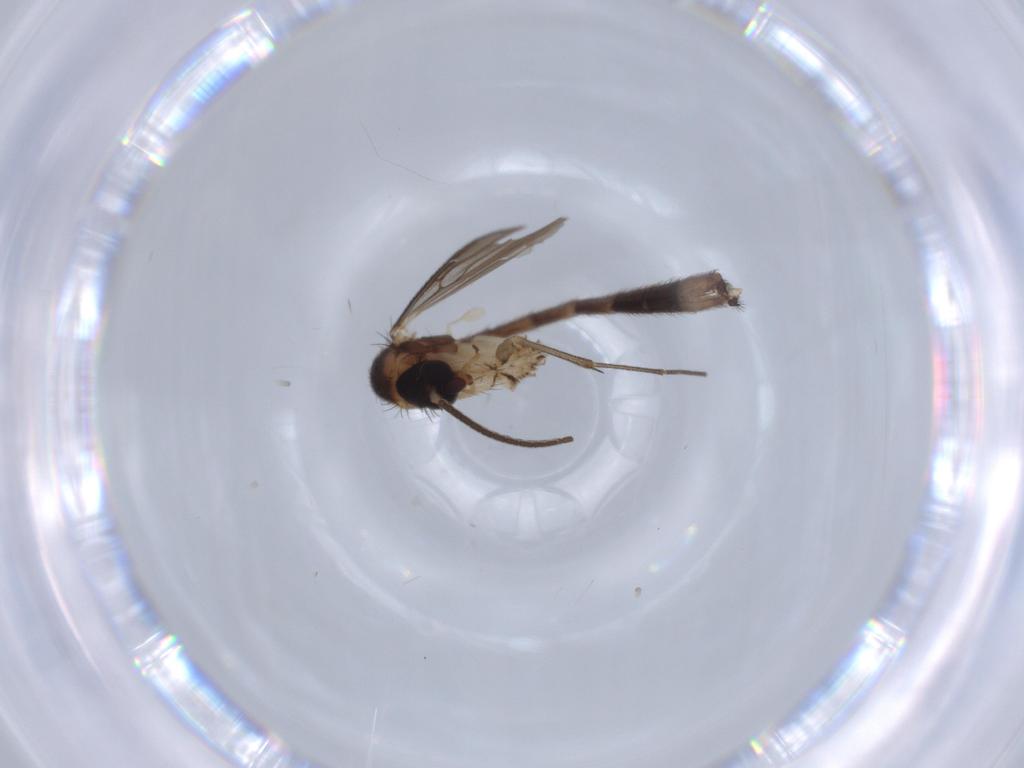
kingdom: Animalia
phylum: Arthropoda
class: Insecta
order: Diptera
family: Mycetophilidae
